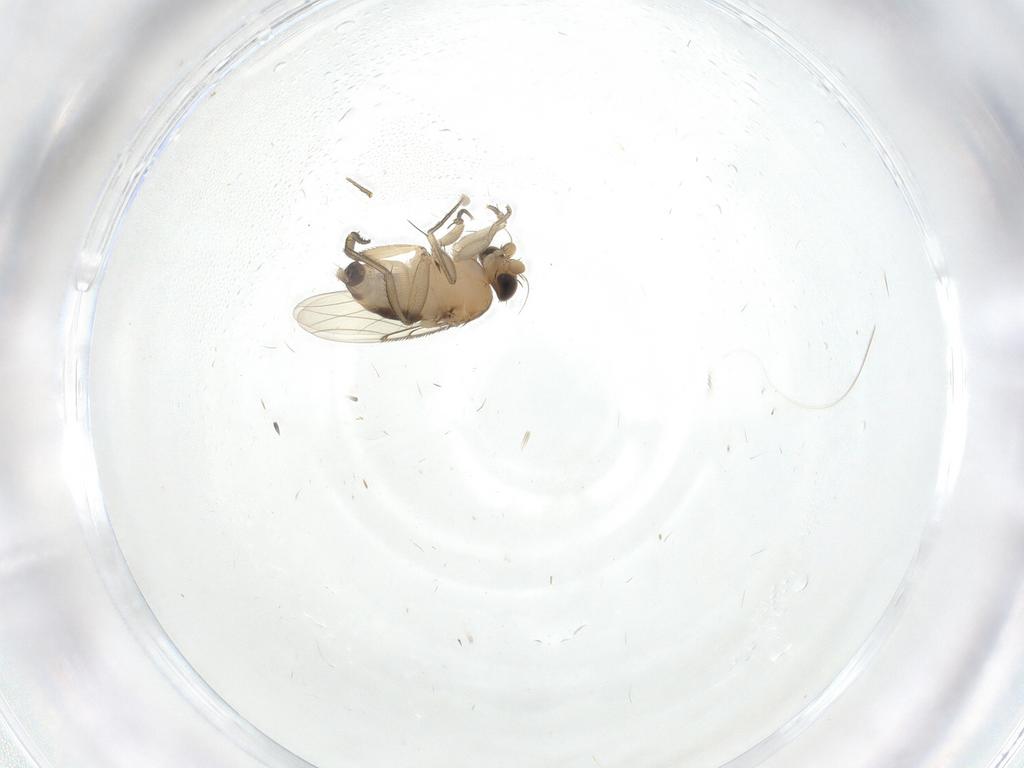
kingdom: Animalia
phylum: Arthropoda
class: Insecta
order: Diptera
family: Phoridae
